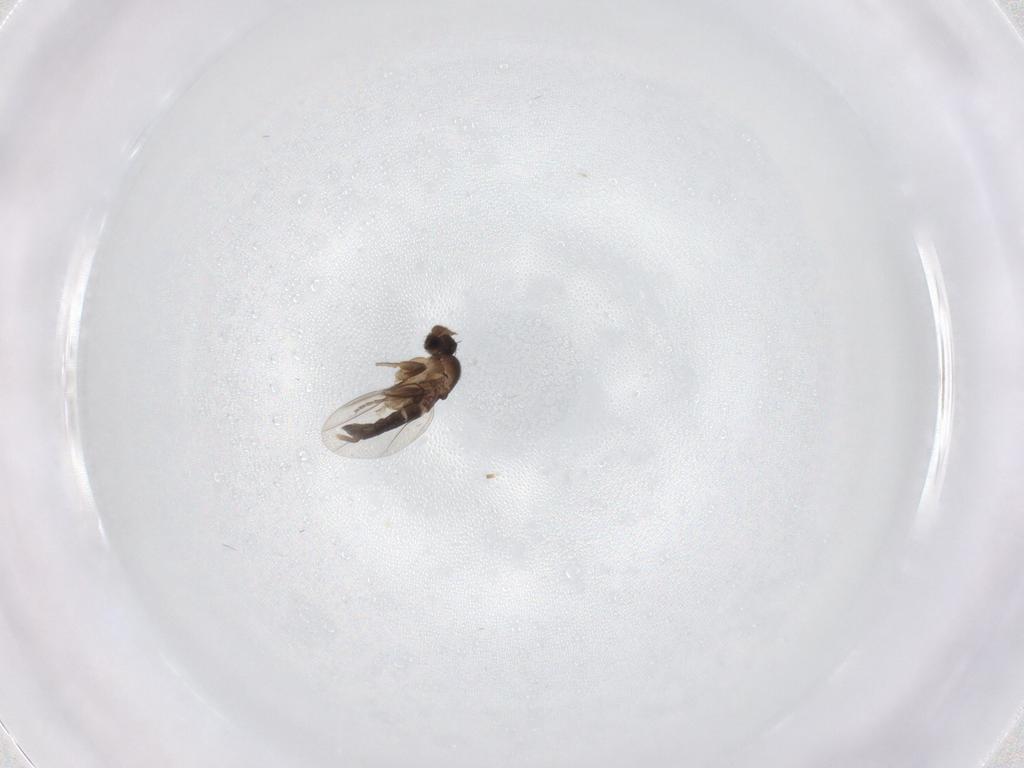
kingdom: Animalia
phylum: Arthropoda
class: Insecta
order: Diptera
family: Phoridae
